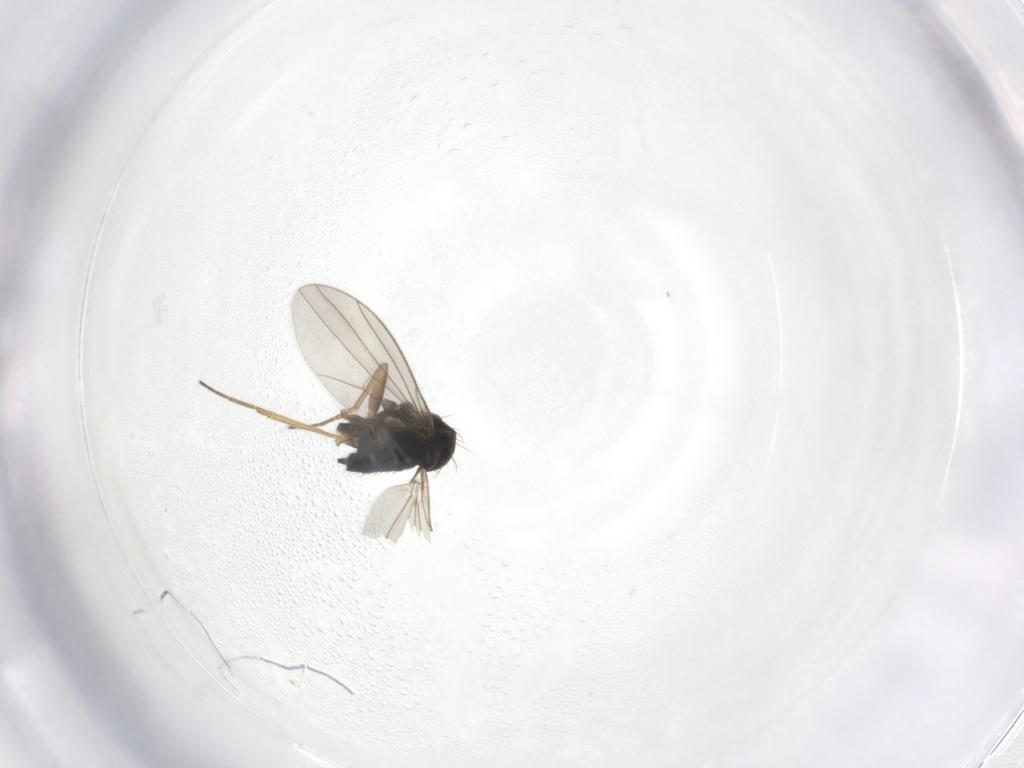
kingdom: Animalia
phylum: Arthropoda
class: Insecta
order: Diptera
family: Dolichopodidae
